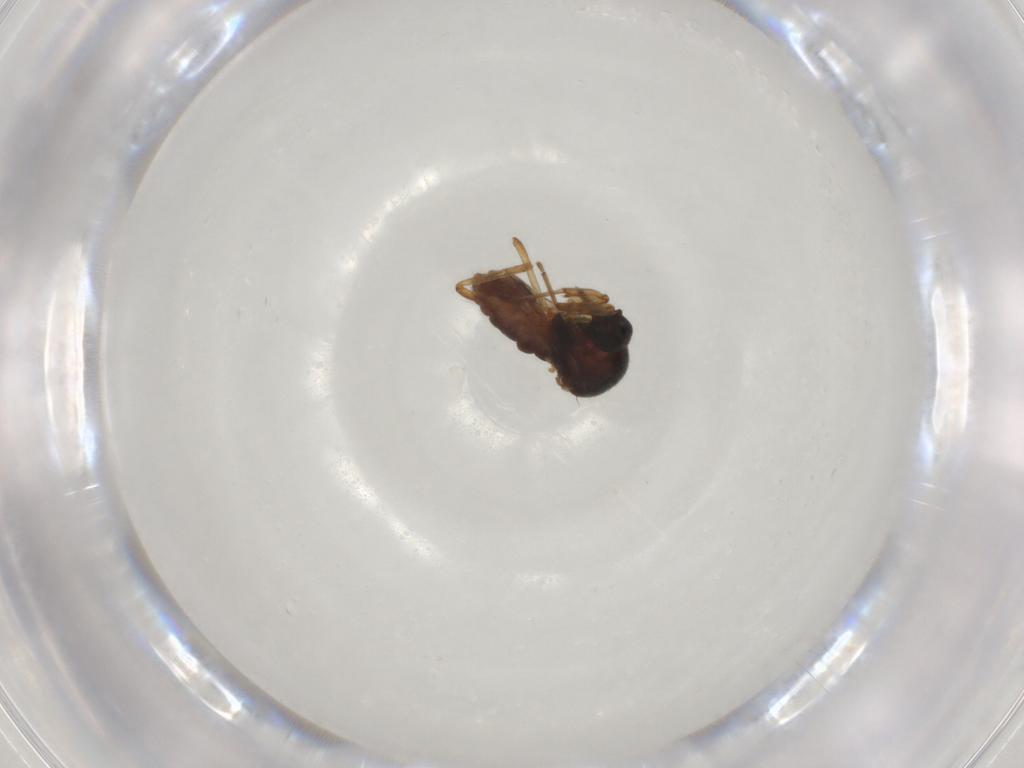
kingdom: Animalia
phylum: Arthropoda
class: Insecta
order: Diptera
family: Ceratopogonidae
